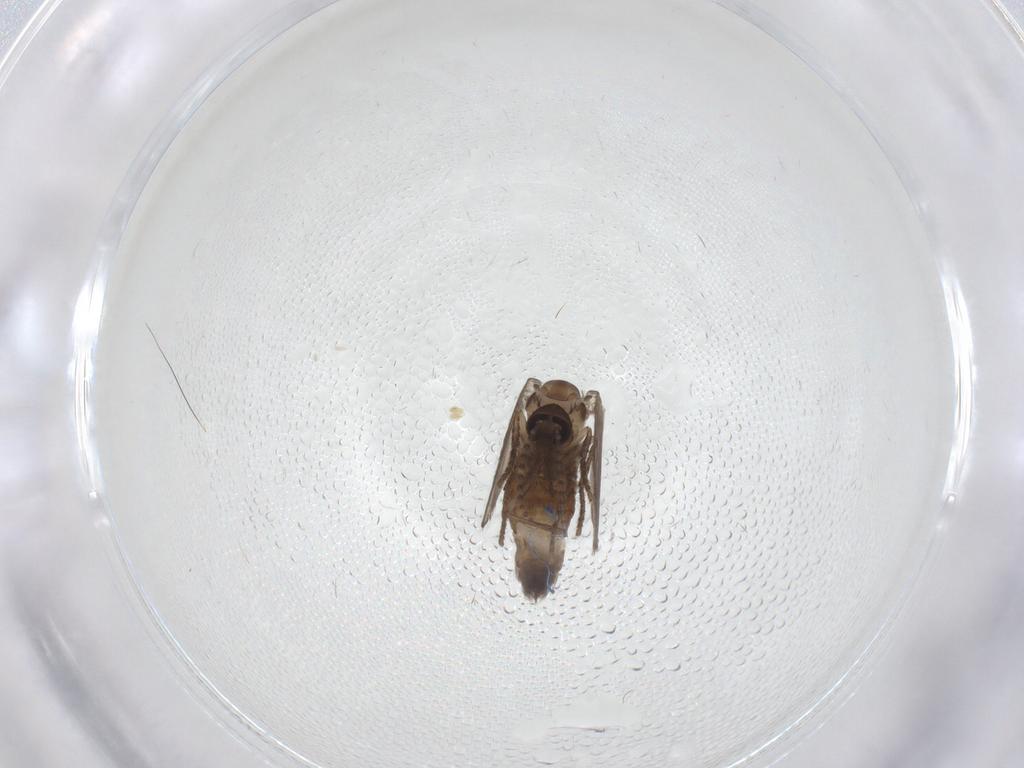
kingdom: Animalia
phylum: Arthropoda
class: Insecta
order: Diptera
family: Psychodidae
